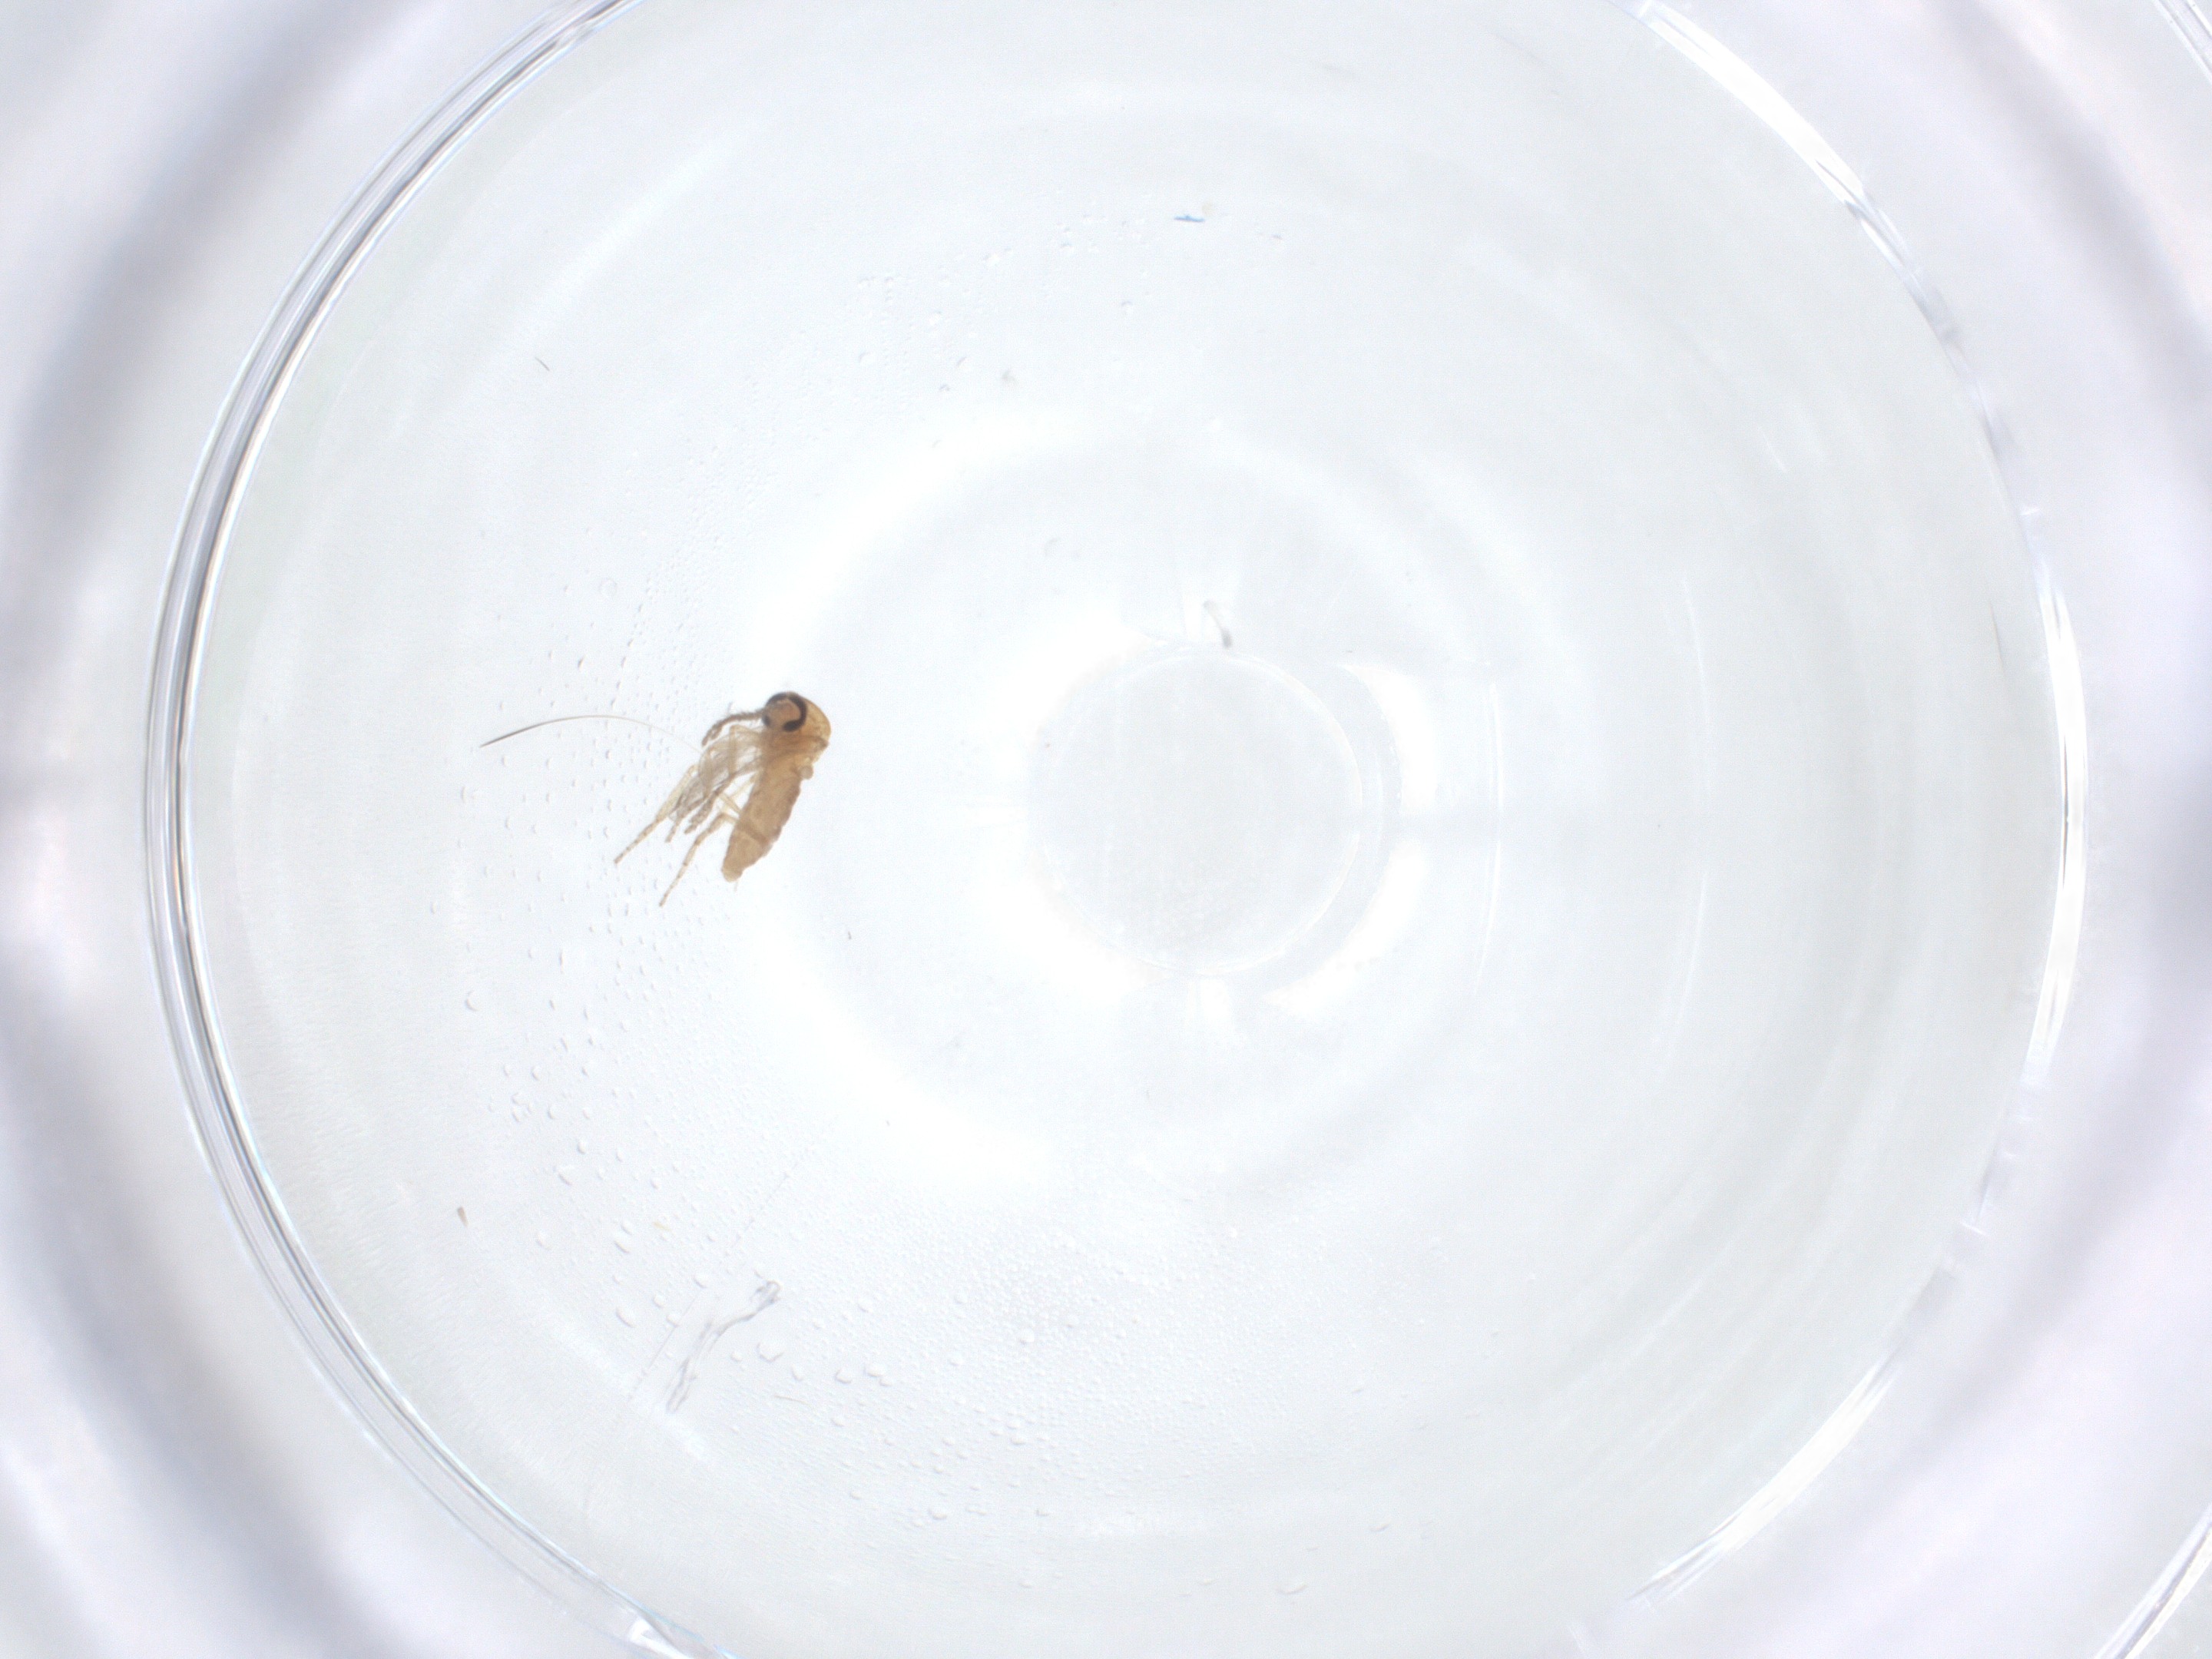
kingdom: Animalia
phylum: Arthropoda
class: Insecta
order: Diptera
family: Ceratopogonidae
